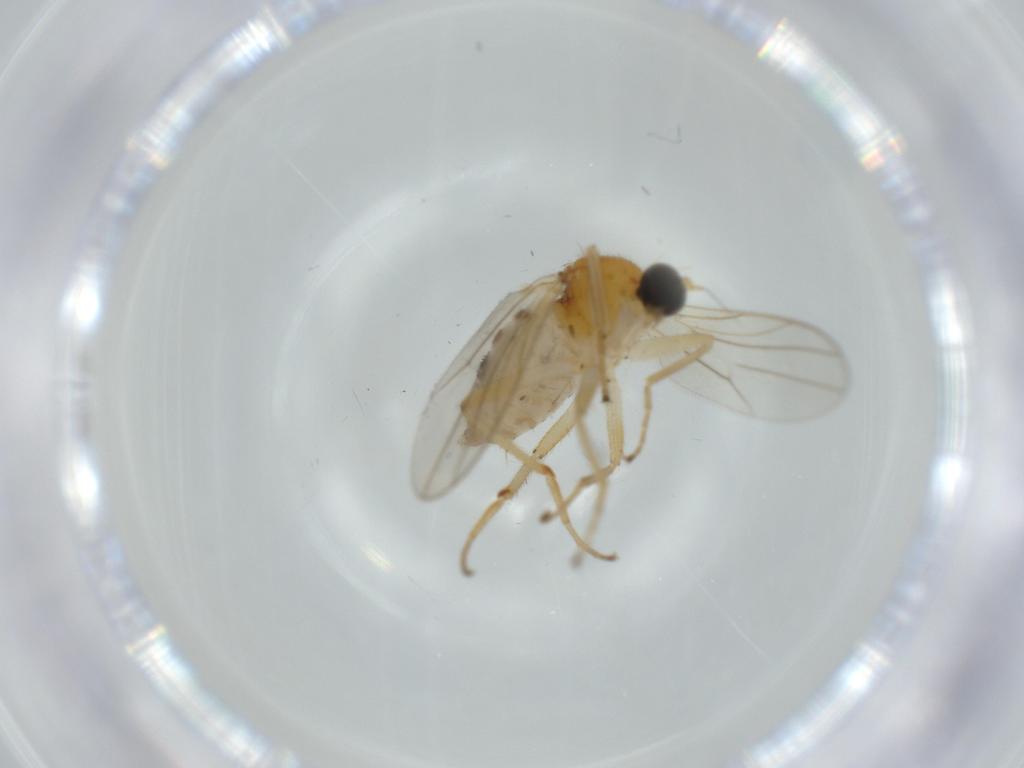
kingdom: Animalia
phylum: Arthropoda
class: Insecta
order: Diptera
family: Hybotidae
